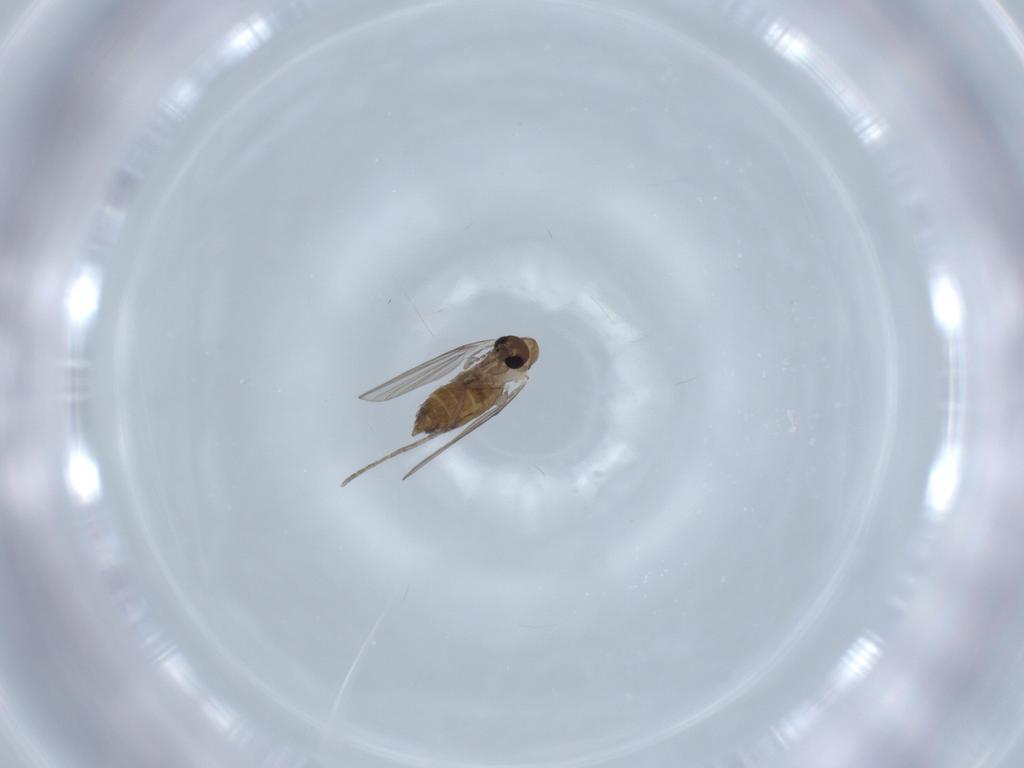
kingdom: Animalia
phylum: Arthropoda
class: Insecta
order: Diptera
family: Psychodidae
